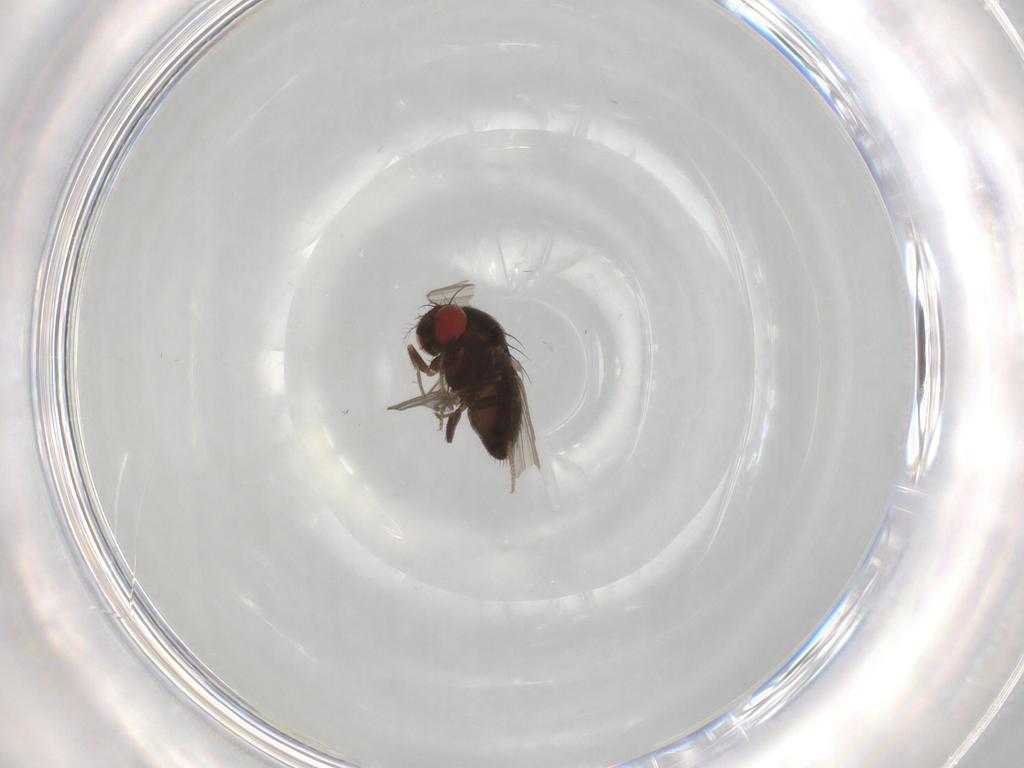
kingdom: Animalia
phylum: Arthropoda
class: Insecta
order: Diptera
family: Drosophilidae
